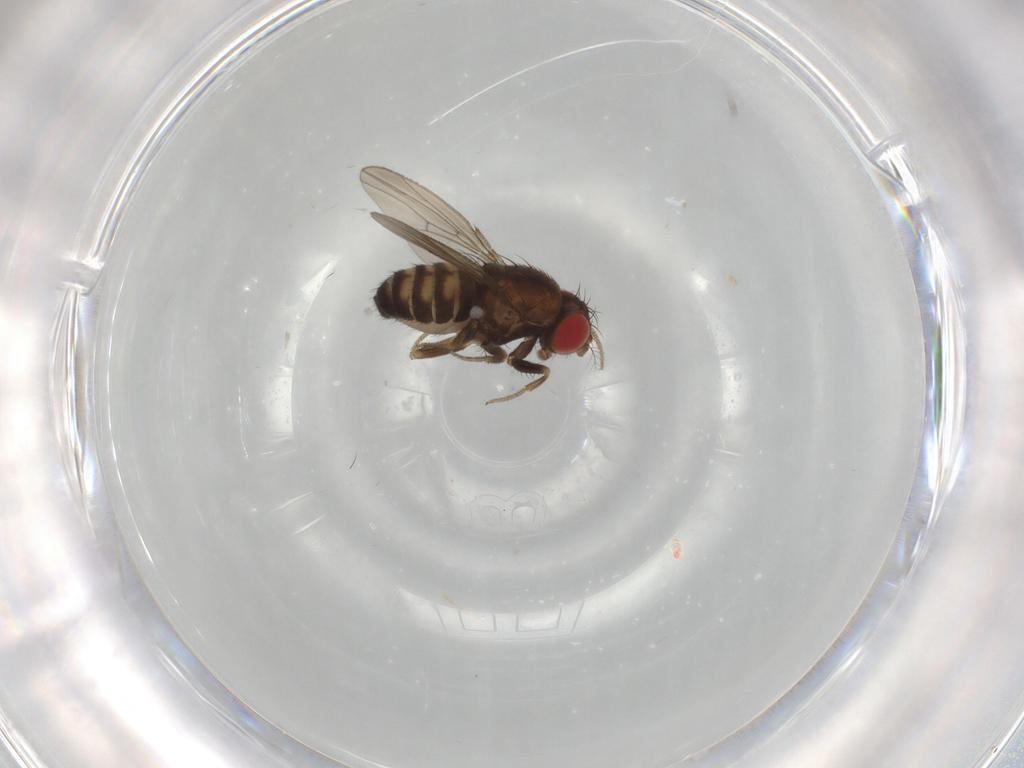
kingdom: Animalia
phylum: Arthropoda
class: Insecta
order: Diptera
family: Drosophilidae
